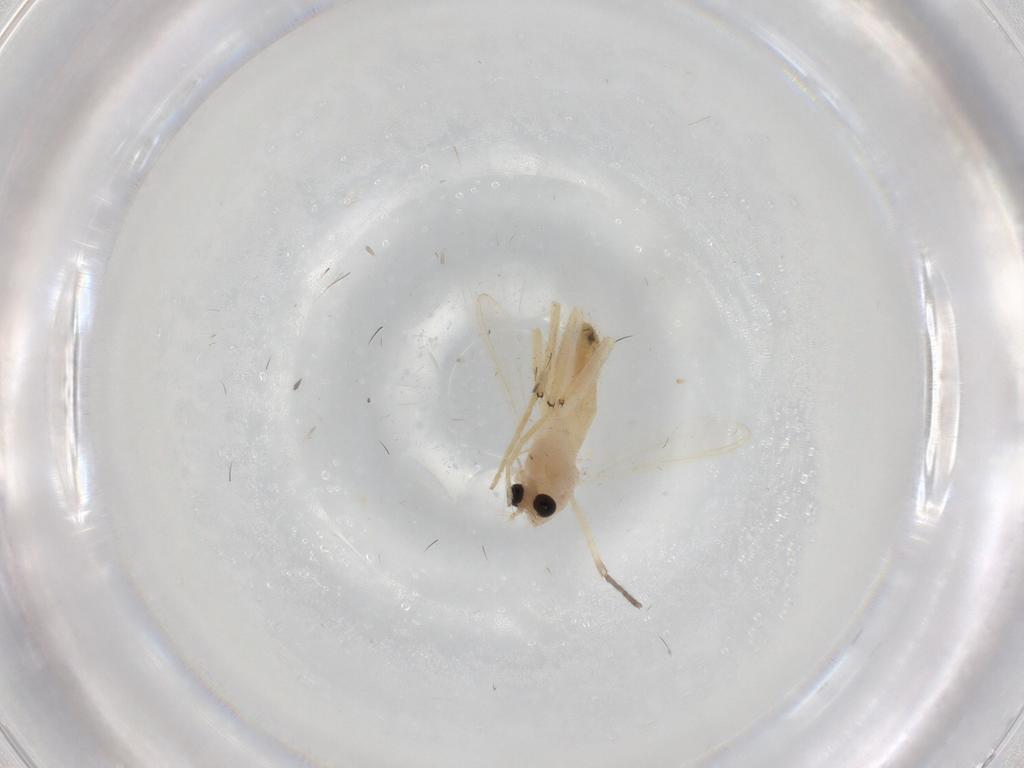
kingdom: Animalia
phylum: Arthropoda
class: Insecta
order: Diptera
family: Chironomidae
